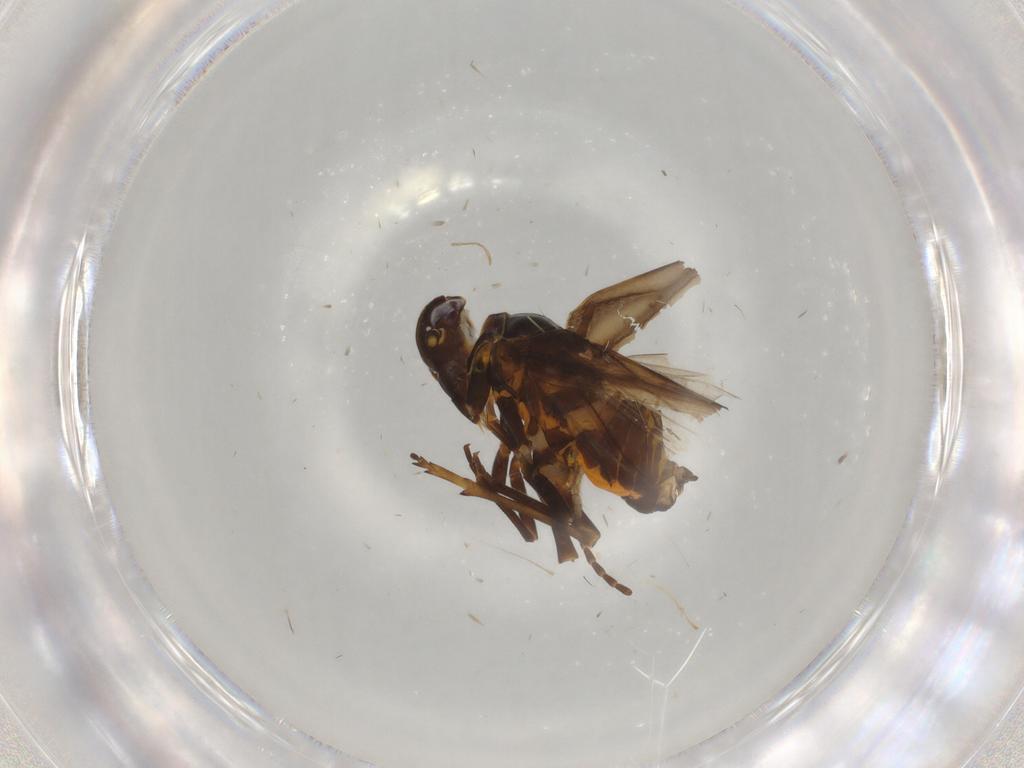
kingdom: Animalia
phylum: Arthropoda
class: Insecta
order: Hemiptera
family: Meenoplidae
